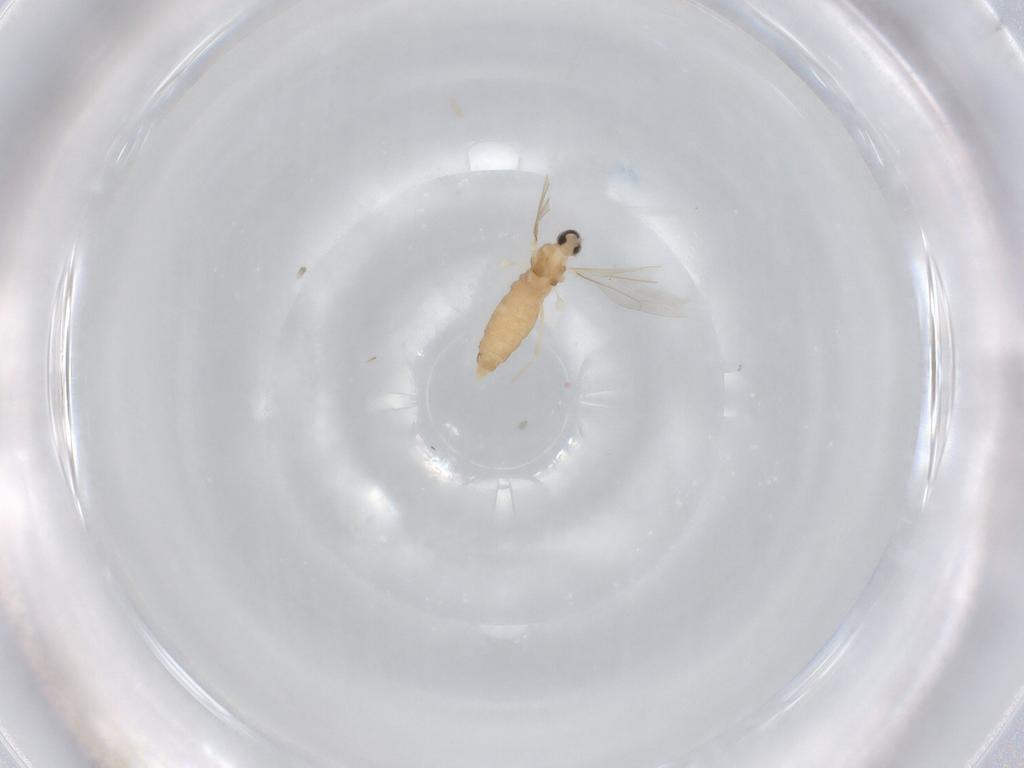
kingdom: Animalia
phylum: Arthropoda
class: Insecta
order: Diptera
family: Cecidomyiidae
